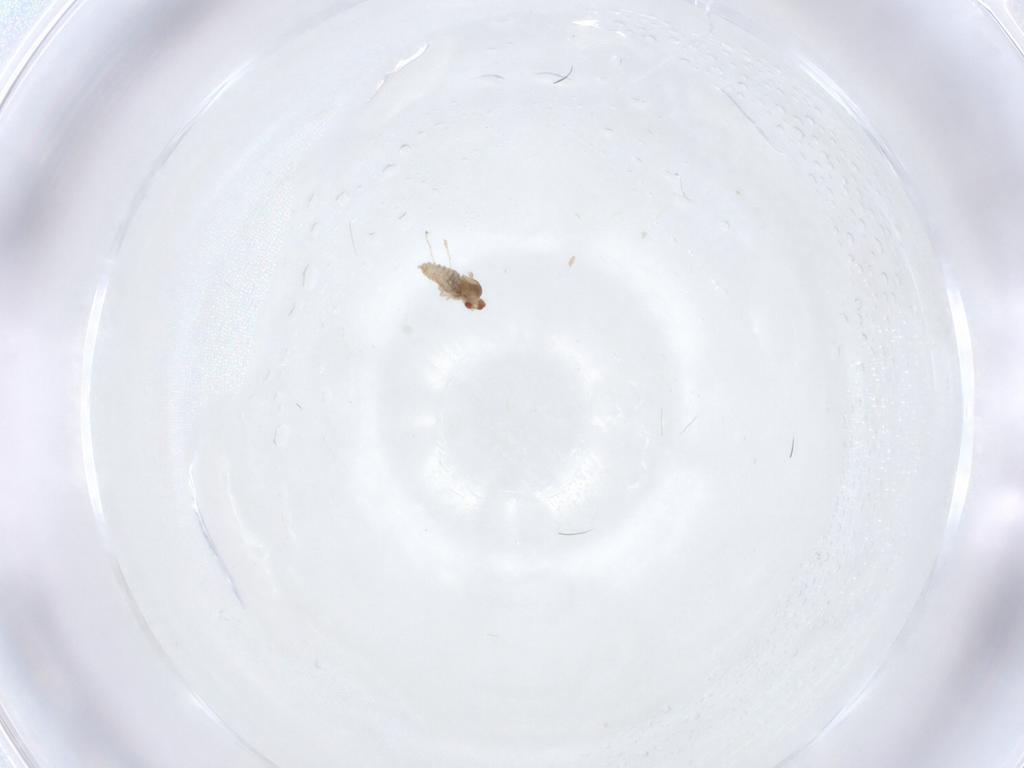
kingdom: Animalia
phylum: Arthropoda
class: Insecta
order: Diptera
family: Cecidomyiidae
